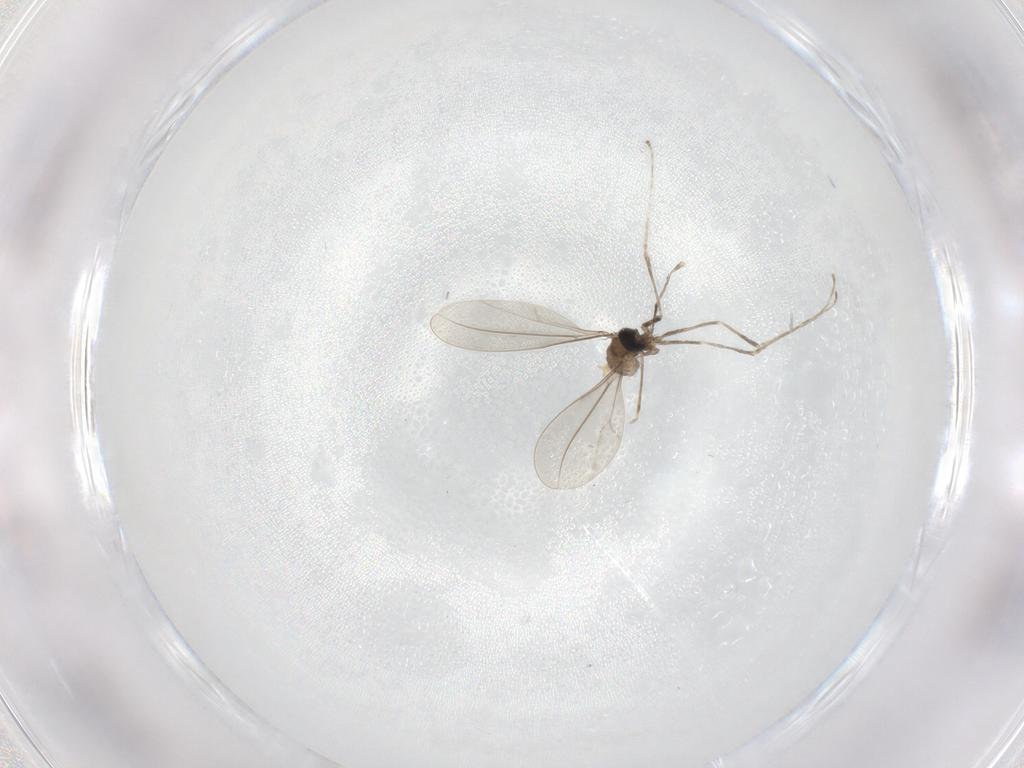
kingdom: Animalia
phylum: Arthropoda
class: Insecta
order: Diptera
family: Cecidomyiidae
